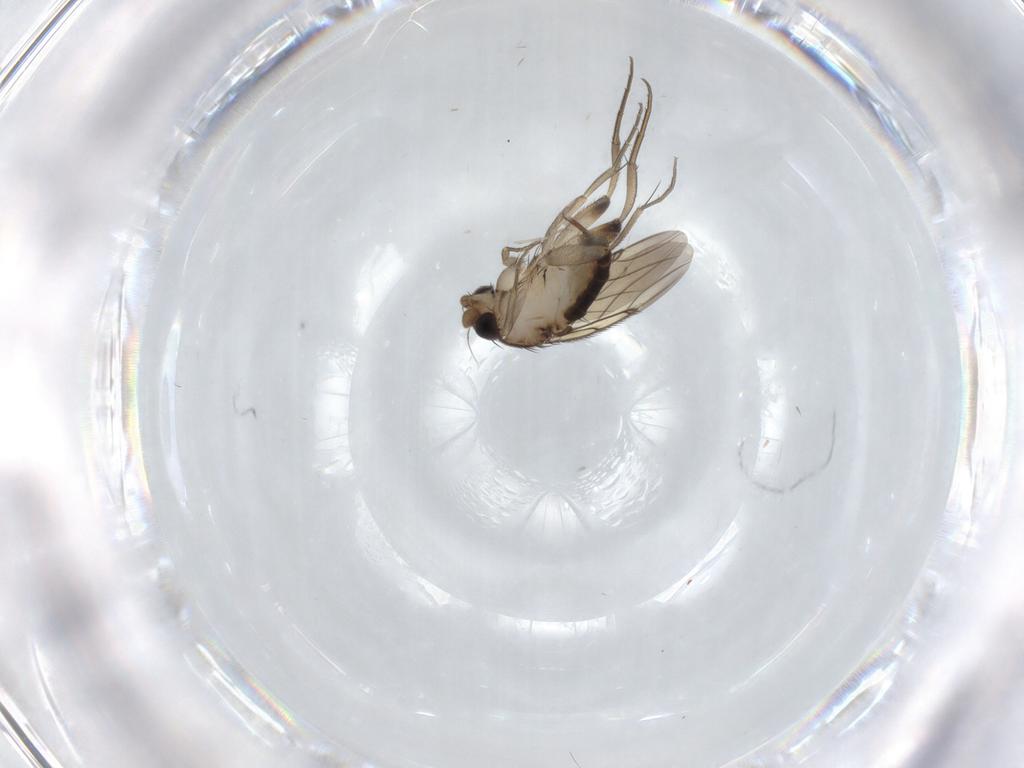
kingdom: Animalia
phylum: Arthropoda
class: Insecta
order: Diptera
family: Phoridae
